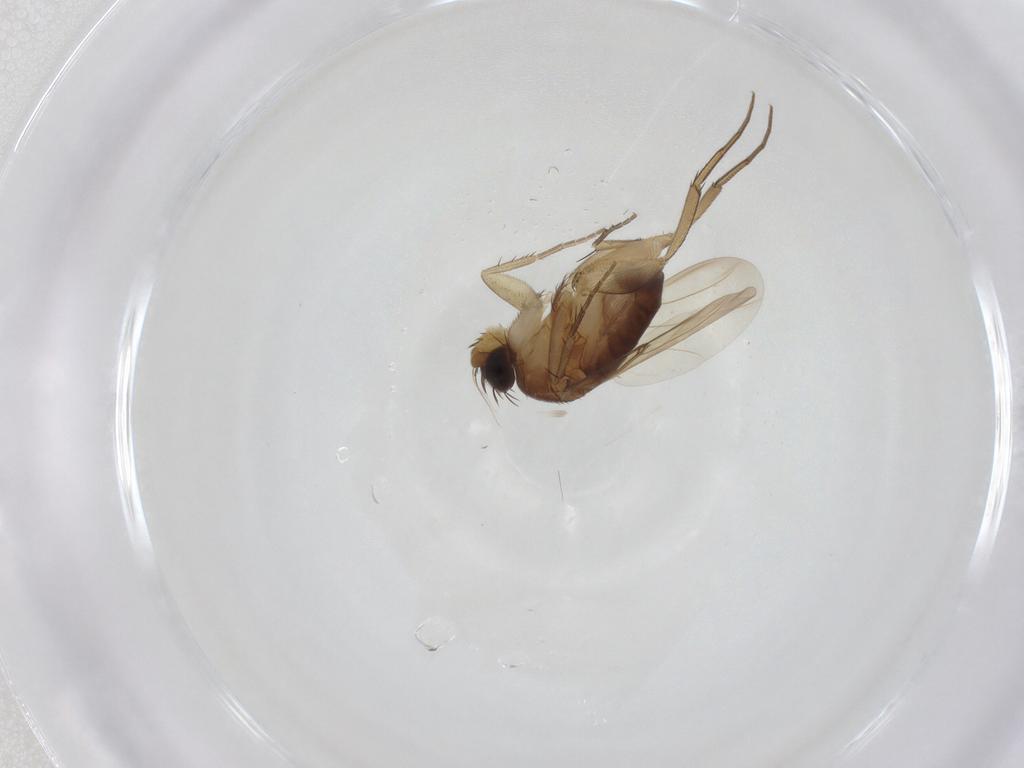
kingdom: Animalia
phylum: Arthropoda
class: Insecta
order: Diptera
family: Phoridae
